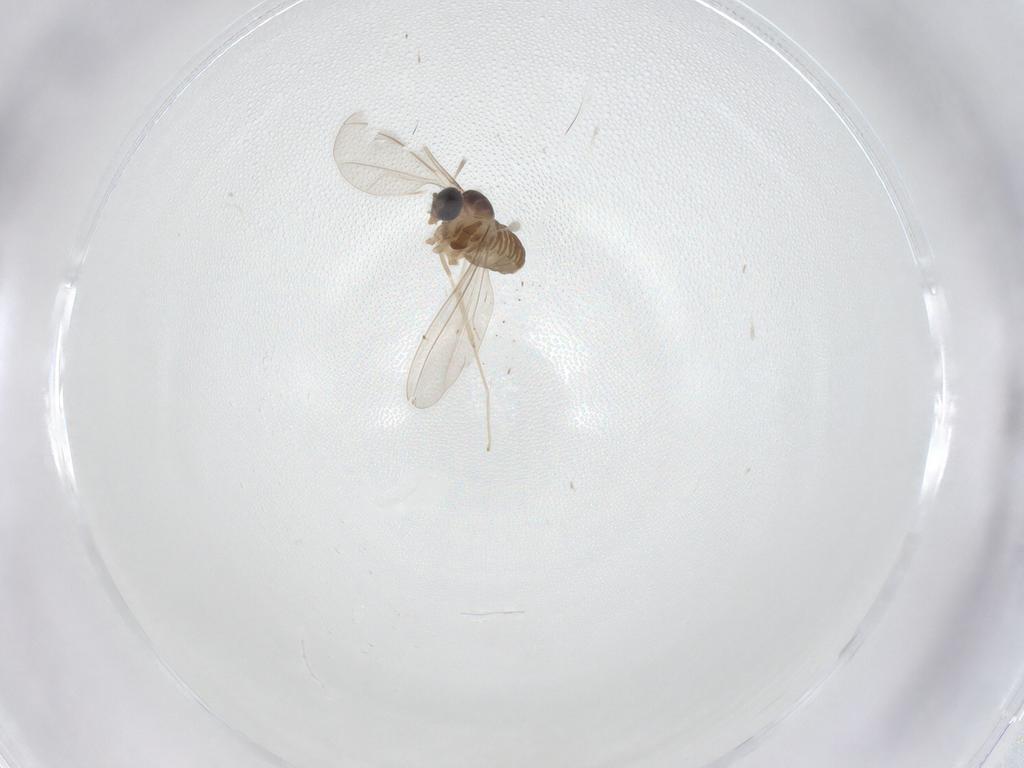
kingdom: Animalia
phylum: Arthropoda
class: Insecta
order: Diptera
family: Cecidomyiidae
